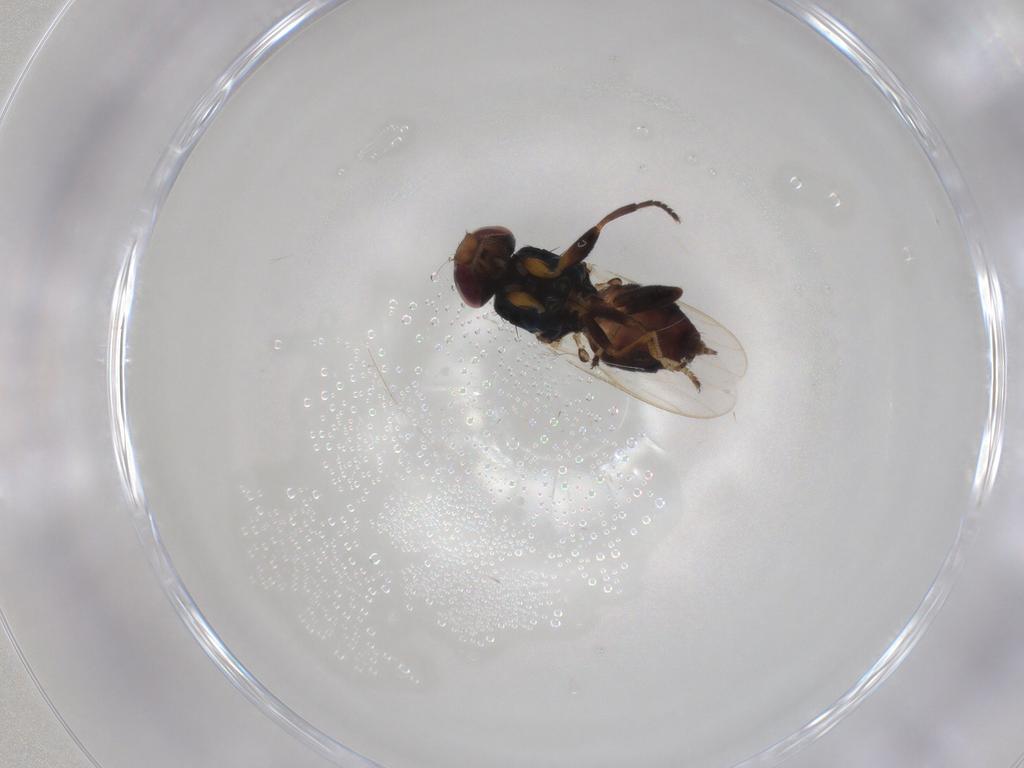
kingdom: Animalia
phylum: Arthropoda
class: Insecta
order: Diptera
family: Chloropidae
